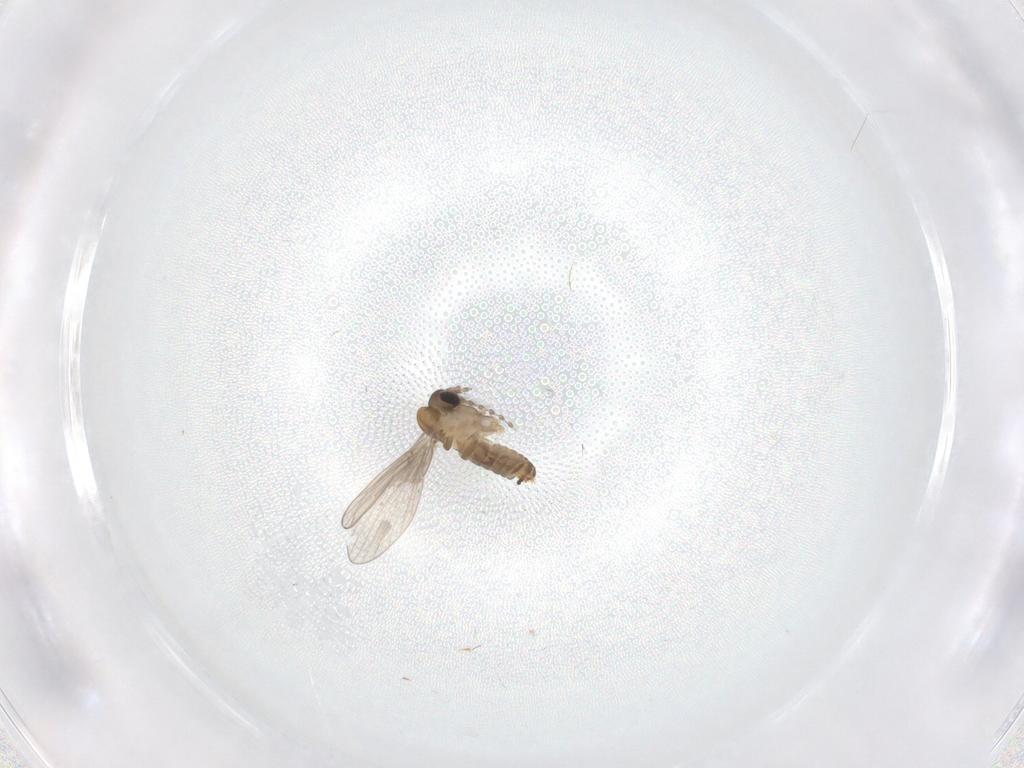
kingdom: Animalia
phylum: Arthropoda
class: Insecta
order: Diptera
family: Psychodidae
